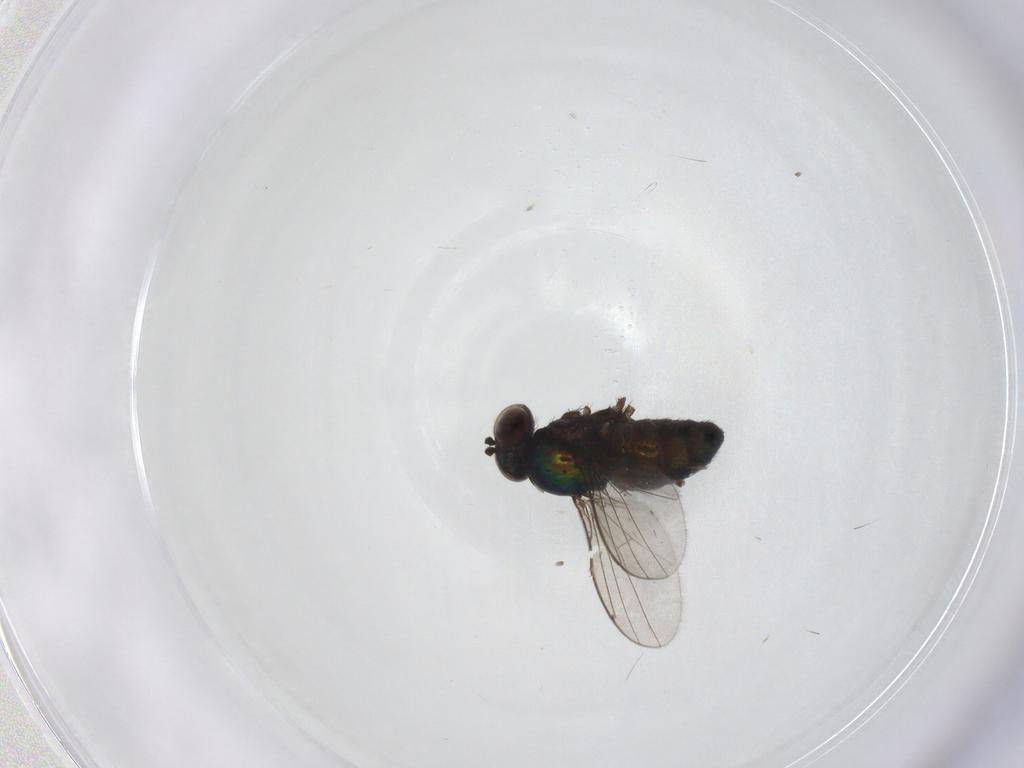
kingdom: Animalia
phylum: Arthropoda
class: Insecta
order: Diptera
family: Dolichopodidae
